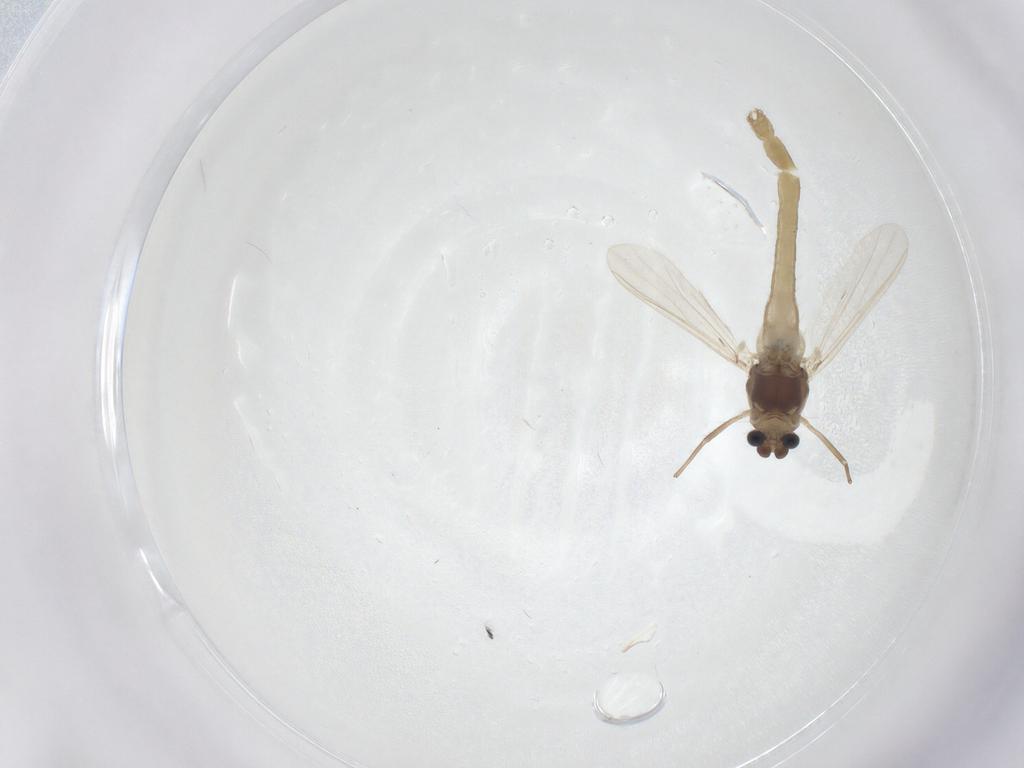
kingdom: Animalia
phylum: Arthropoda
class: Insecta
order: Diptera
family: Chironomidae
